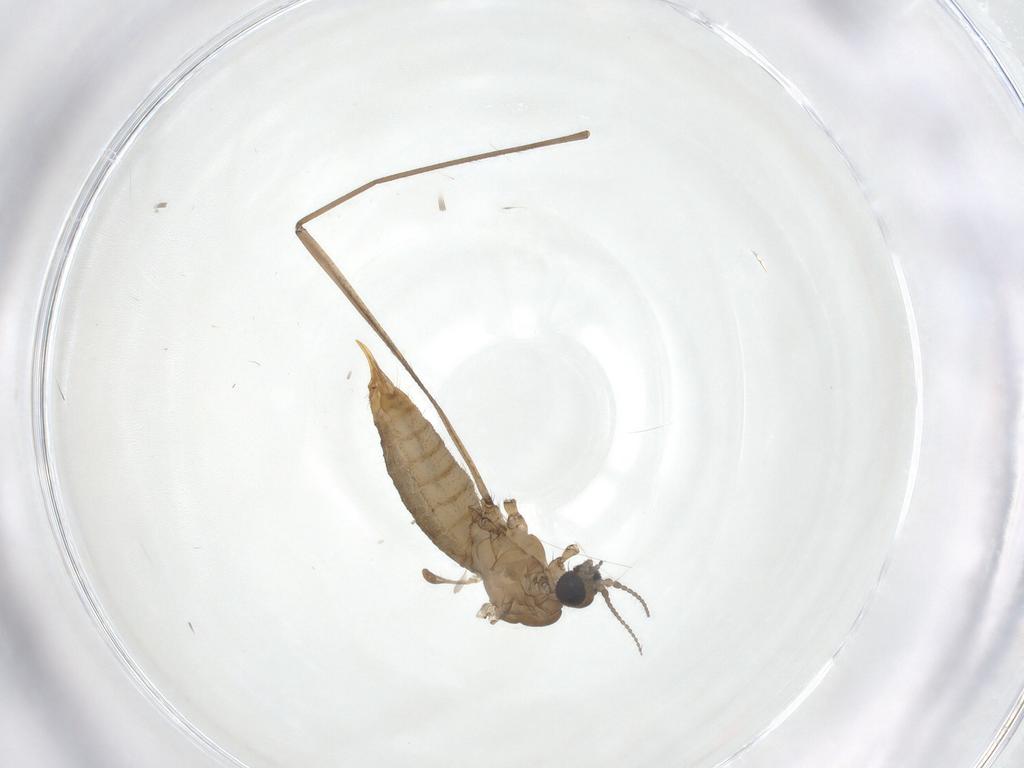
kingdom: Animalia
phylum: Arthropoda
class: Insecta
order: Diptera
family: Limoniidae
